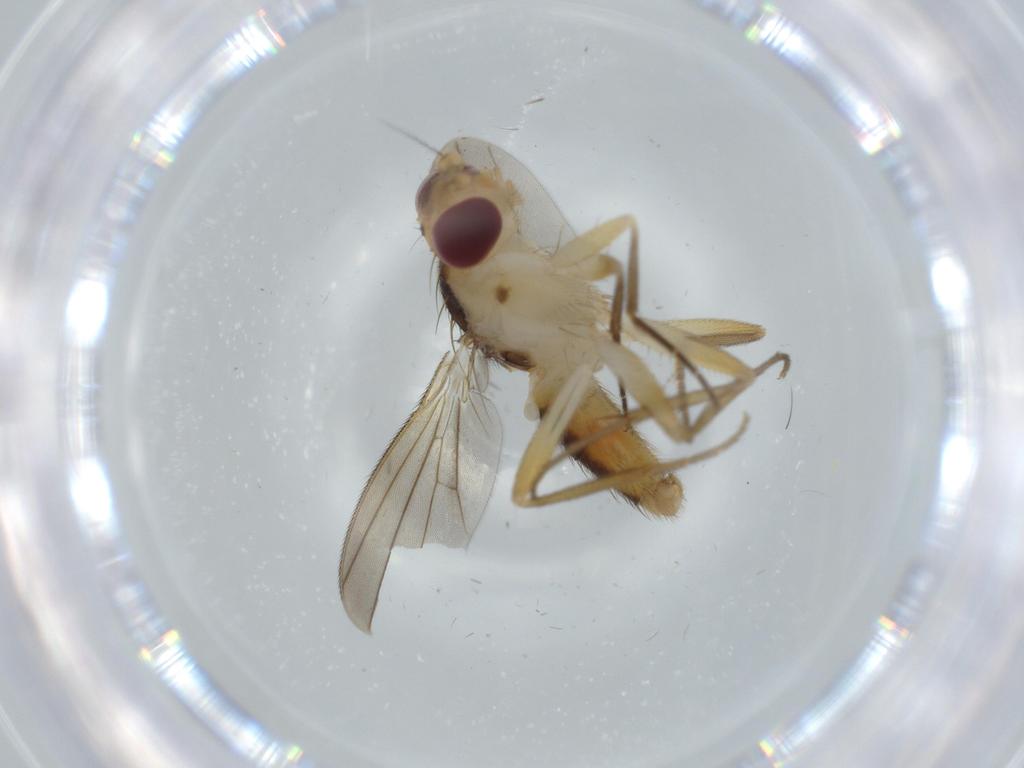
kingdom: Animalia
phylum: Arthropoda
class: Insecta
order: Diptera
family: Clusiidae
